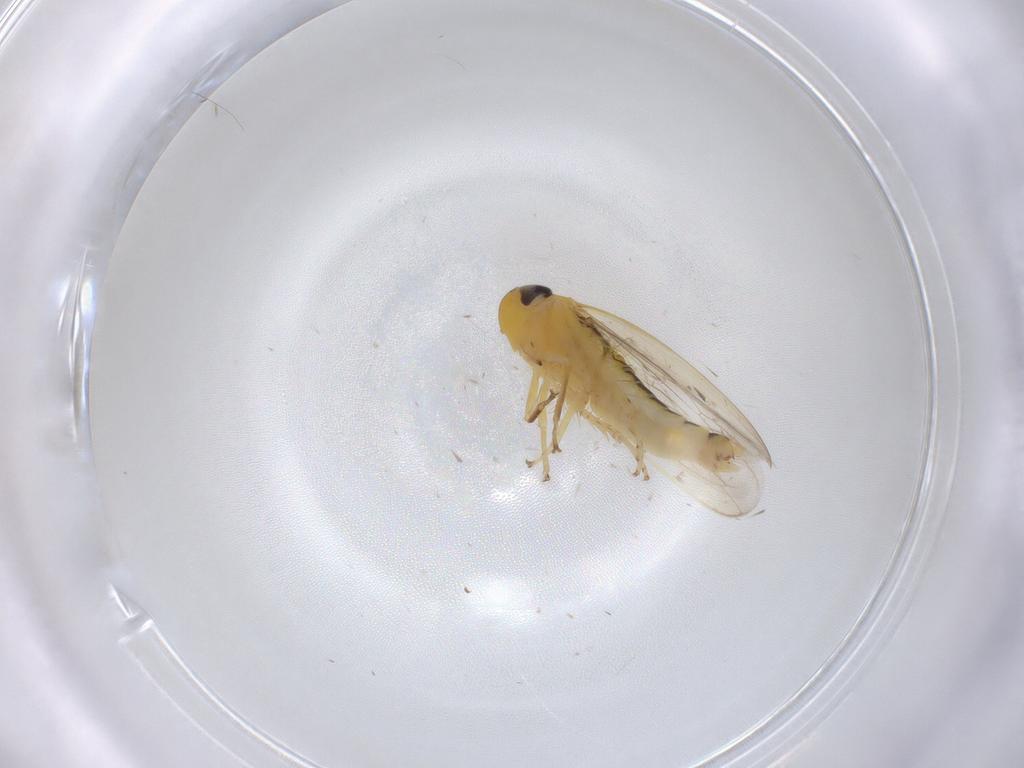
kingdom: Animalia
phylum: Arthropoda
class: Insecta
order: Hemiptera
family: Cicadellidae
